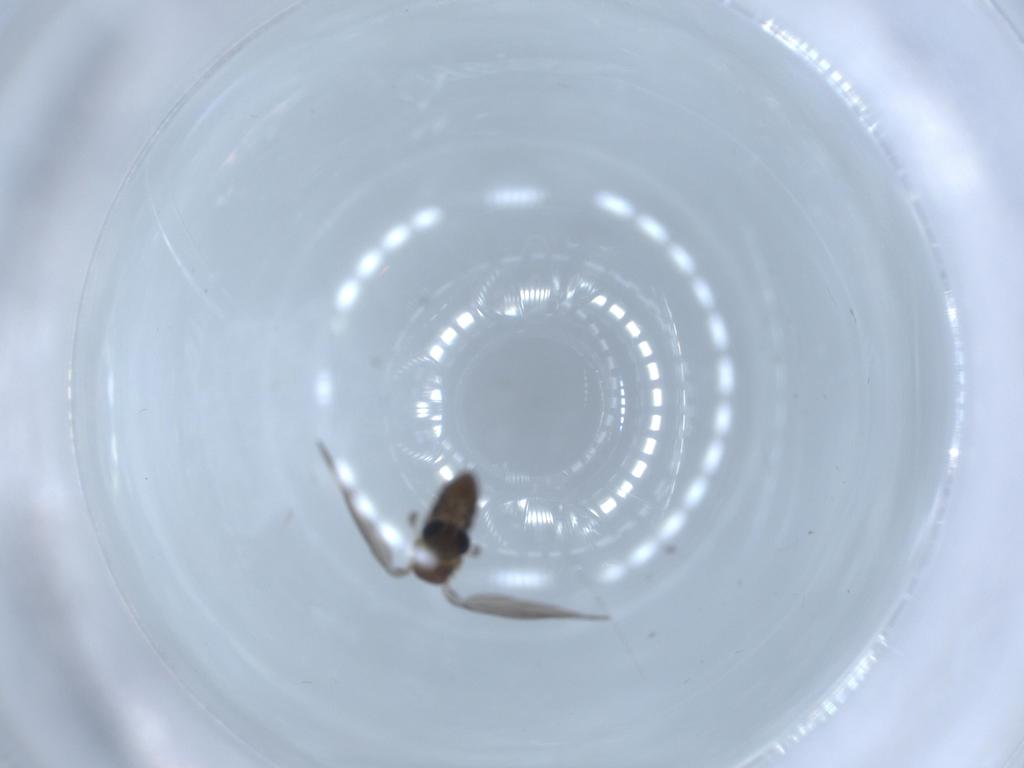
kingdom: Animalia
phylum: Arthropoda
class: Insecta
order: Diptera
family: Psychodidae
